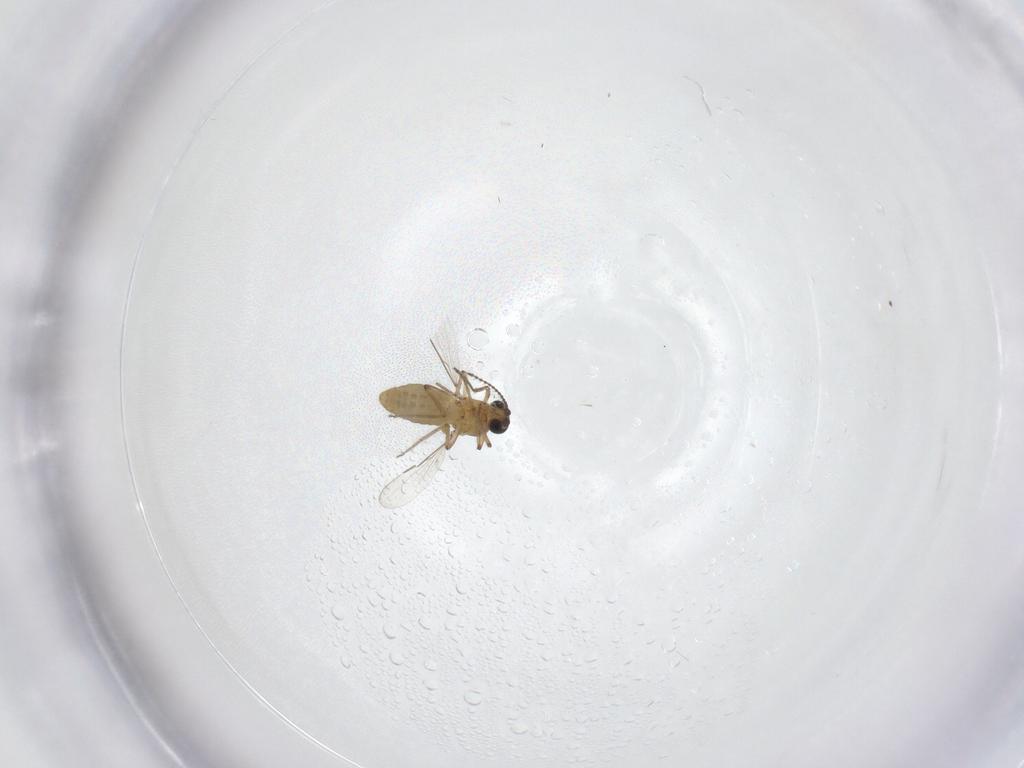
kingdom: Animalia
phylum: Arthropoda
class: Insecta
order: Diptera
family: Ceratopogonidae
